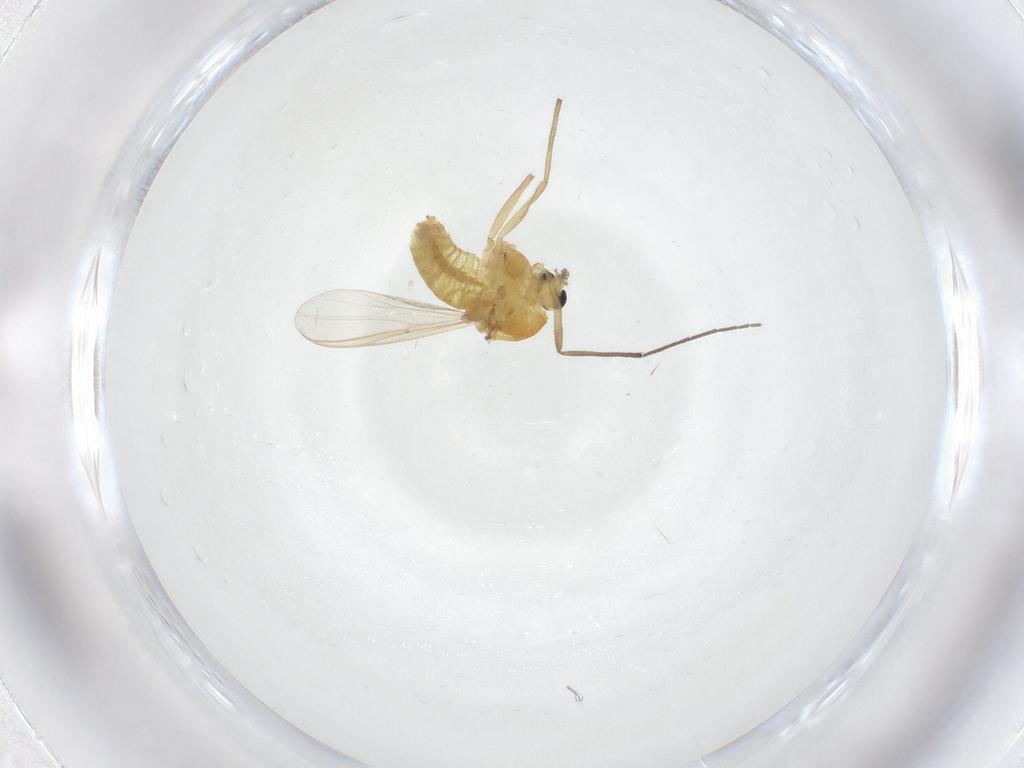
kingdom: Animalia
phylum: Arthropoda
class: Insecta
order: Diptera
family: Chironomidae
